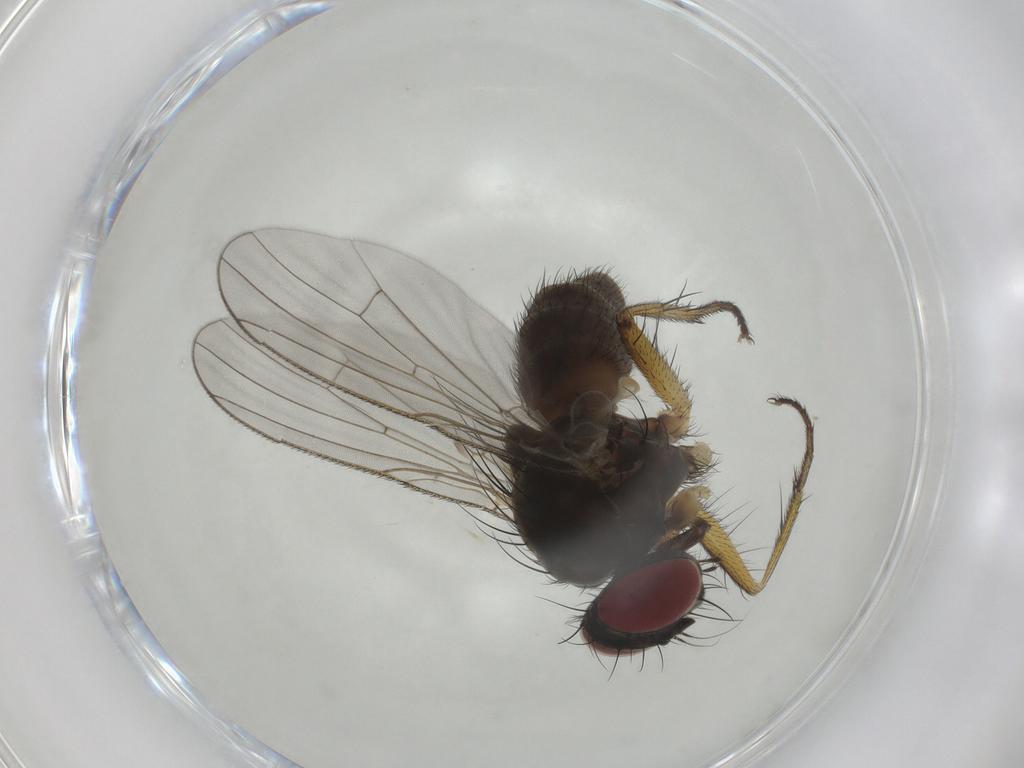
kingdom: Animalia
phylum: Arthropoda
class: Insecta
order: Diptera
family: Muscidae
